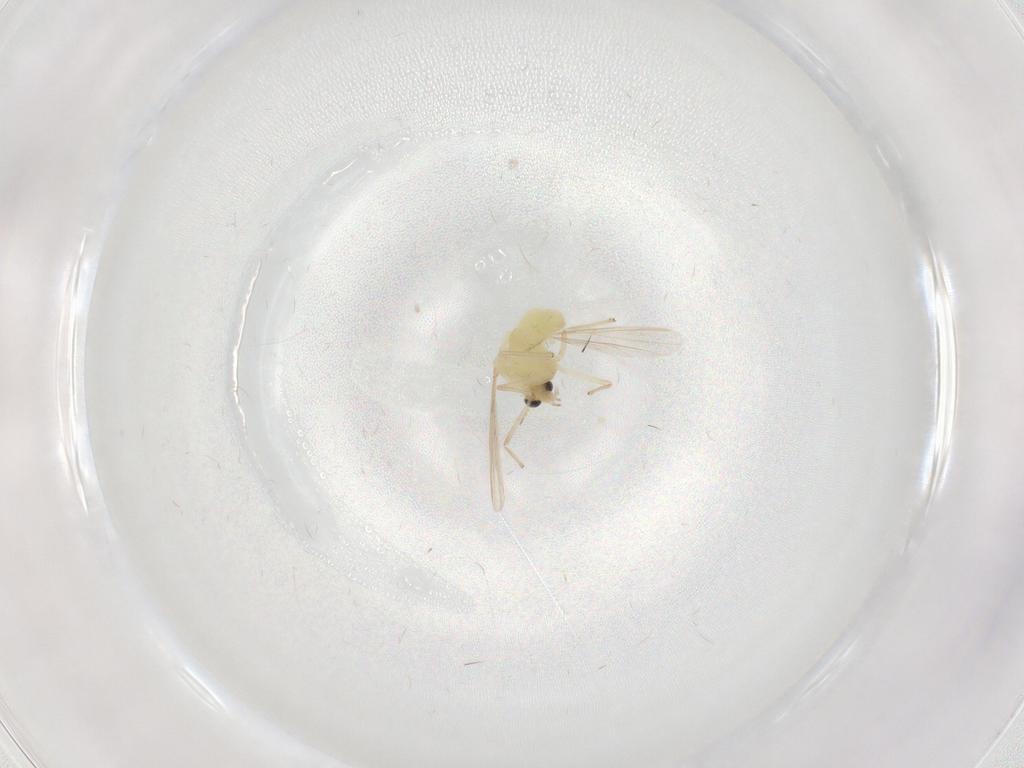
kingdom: Animalia
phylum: Arthropoda
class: Insecta
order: Diptera
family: Chironomidae
